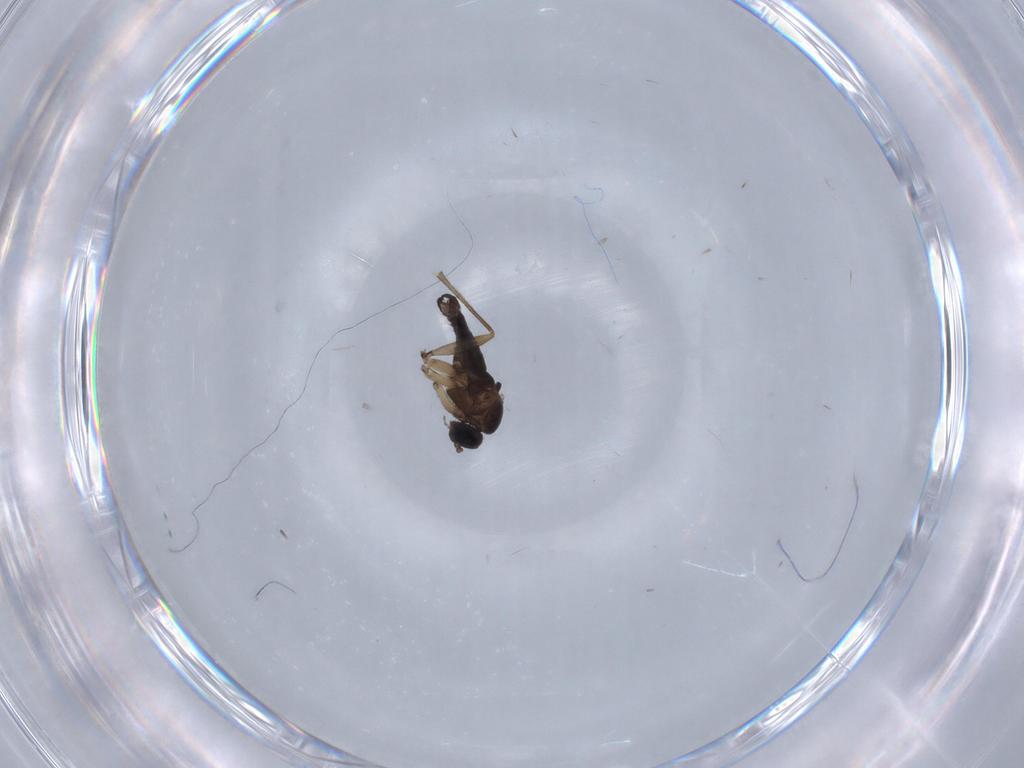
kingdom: Animalia
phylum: Arthropoda
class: Insecta
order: Diptera
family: Sciaridae
